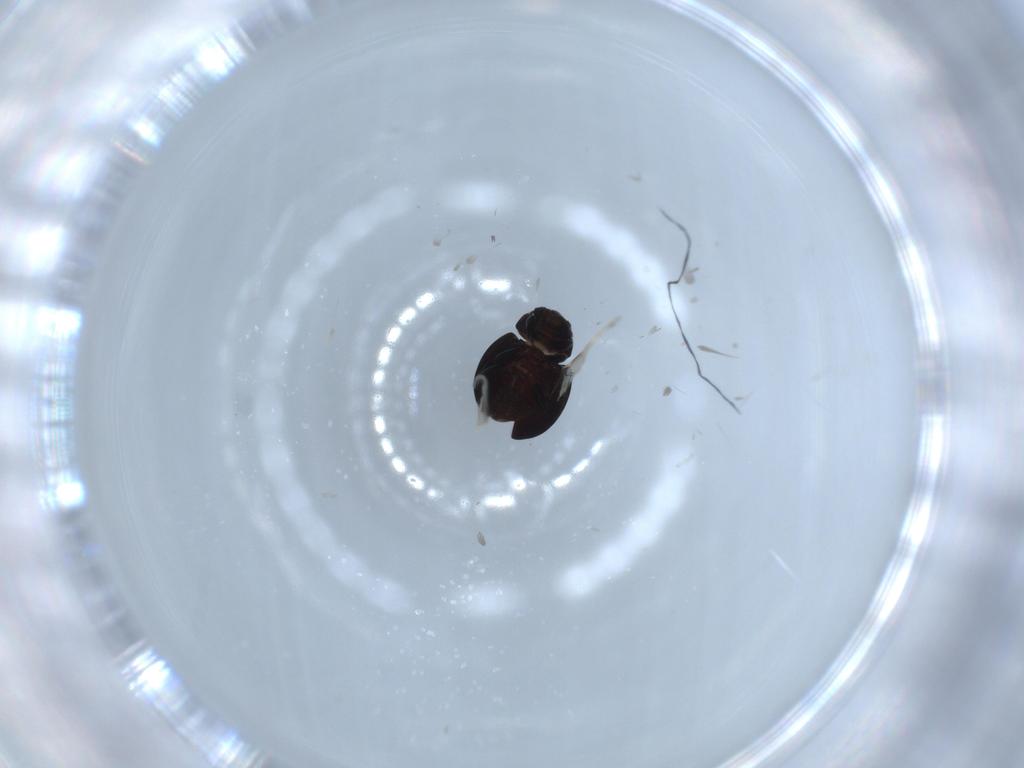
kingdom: Animalia
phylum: Arthropoda
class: Insecta
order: Coleoptera
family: Coccinellidae
